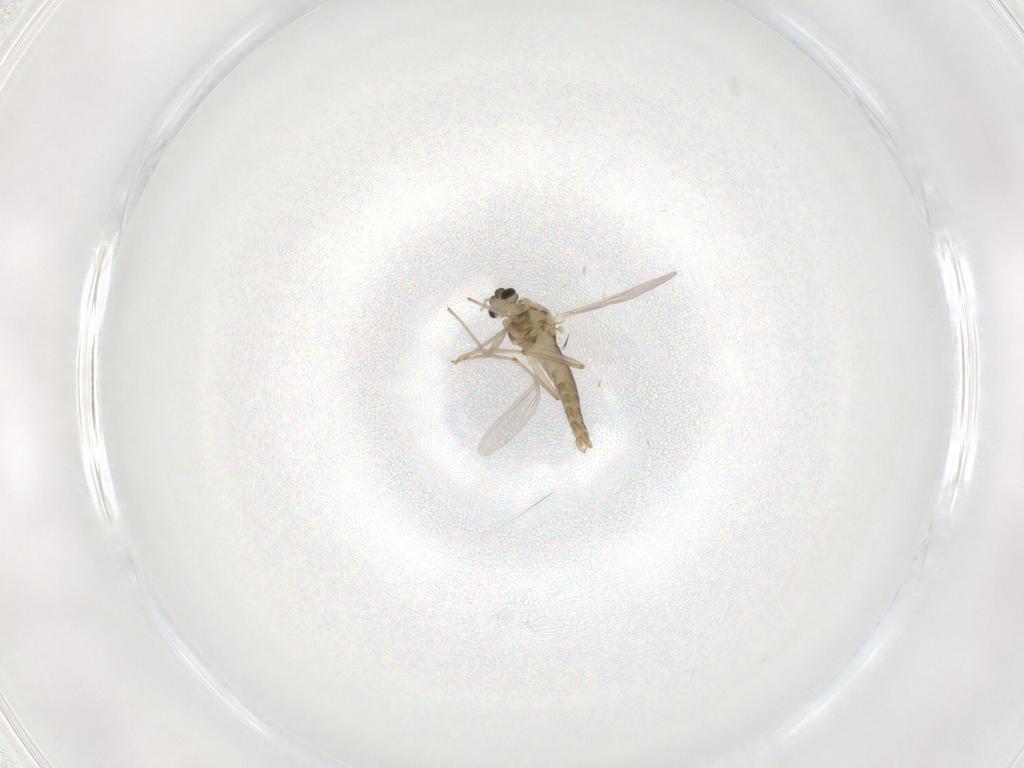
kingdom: Animalia
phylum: Arthropoda
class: Insecta
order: Diptera
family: Chironomidae
